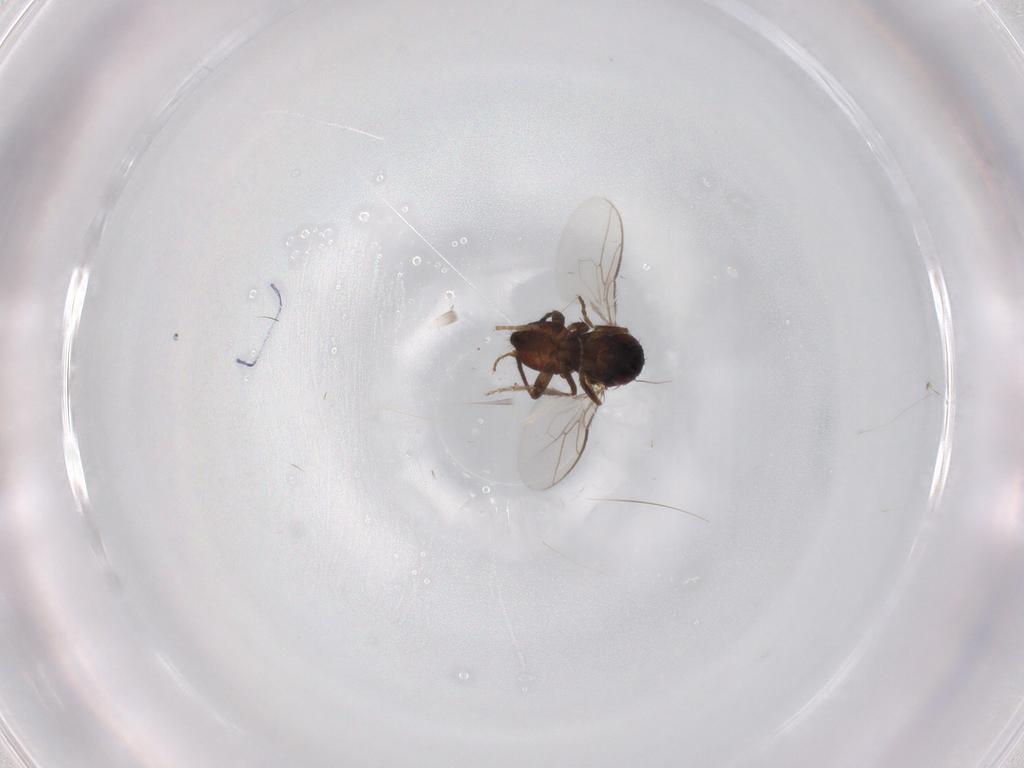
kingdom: Animalia
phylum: Arthropoda
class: Insecta
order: Diptera
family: Sphaeroceridae
